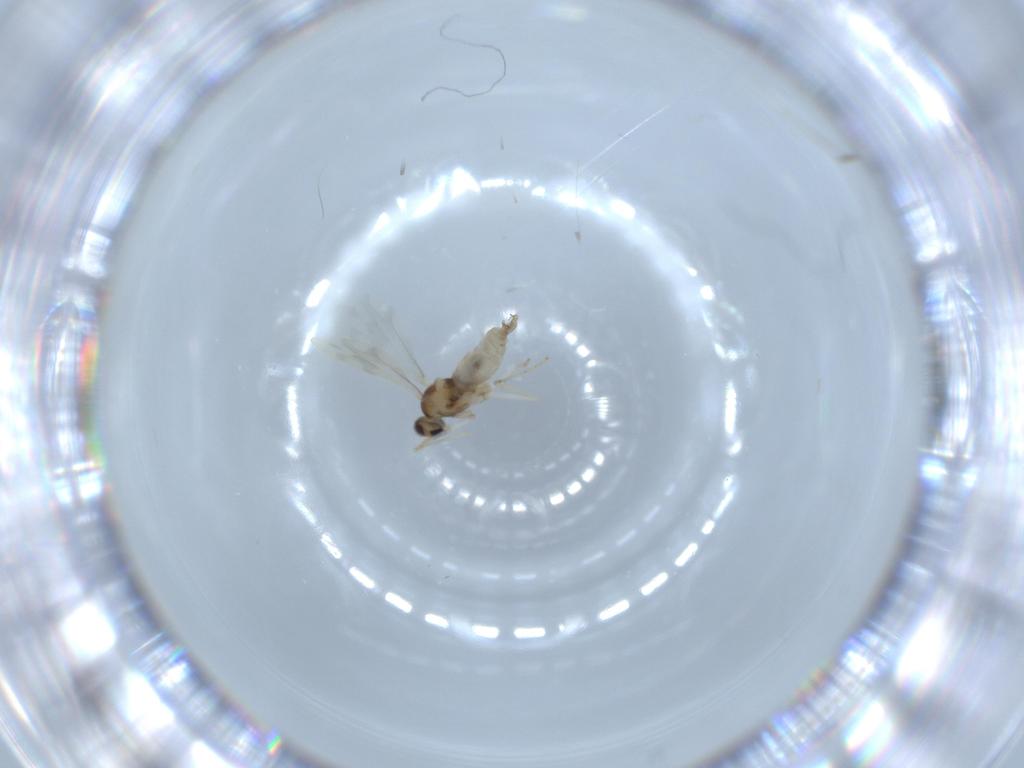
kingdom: Animalia
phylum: Arthropoda
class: Insecta
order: Diptera
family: Cecidomyiidae
